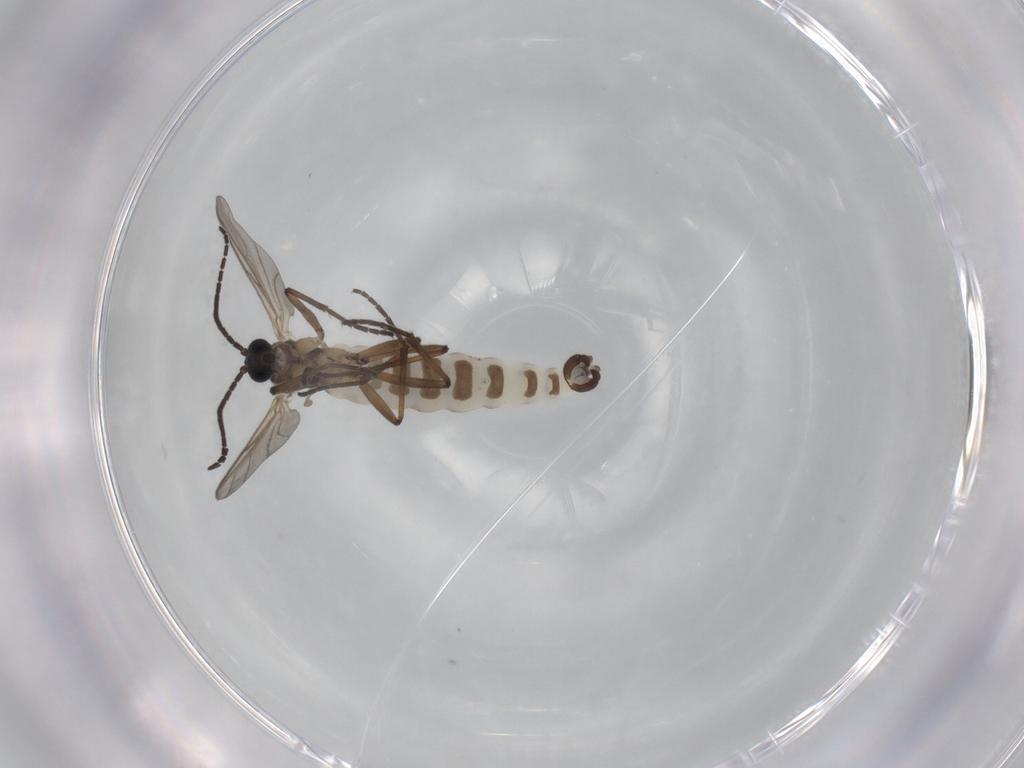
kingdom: Animalia
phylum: Arthropoda
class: Insecta
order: Diptera
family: Sciaridae
